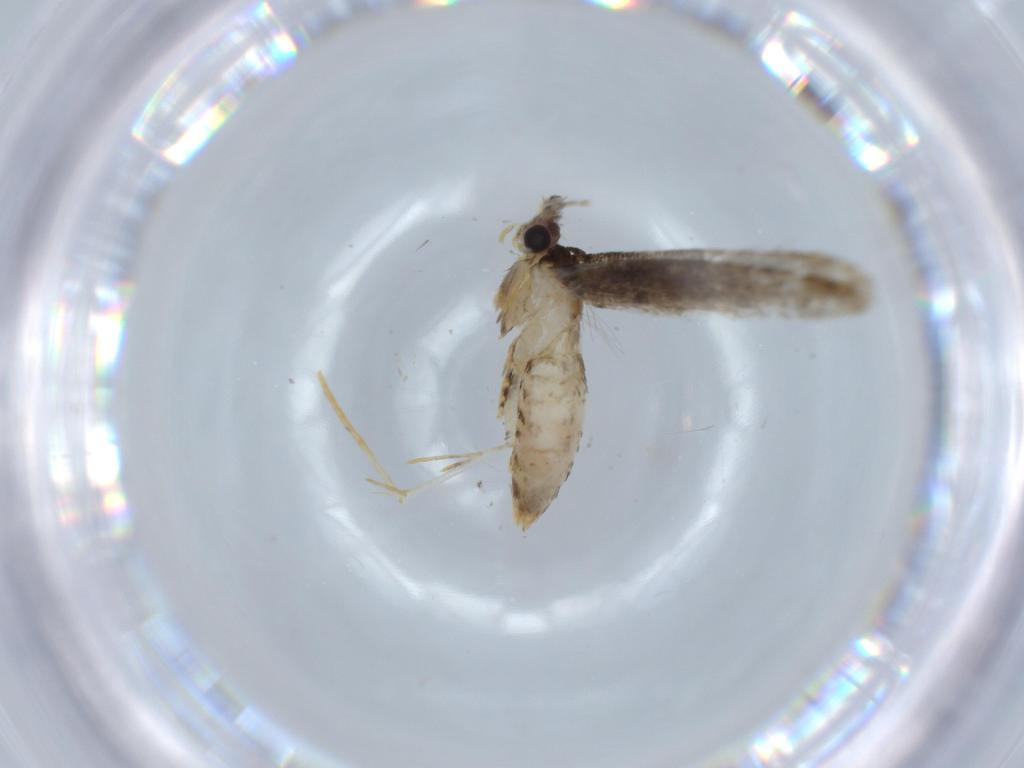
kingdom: Animalia
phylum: Arthropoda
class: Insecta
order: Lepidoptera
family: Tineidae
